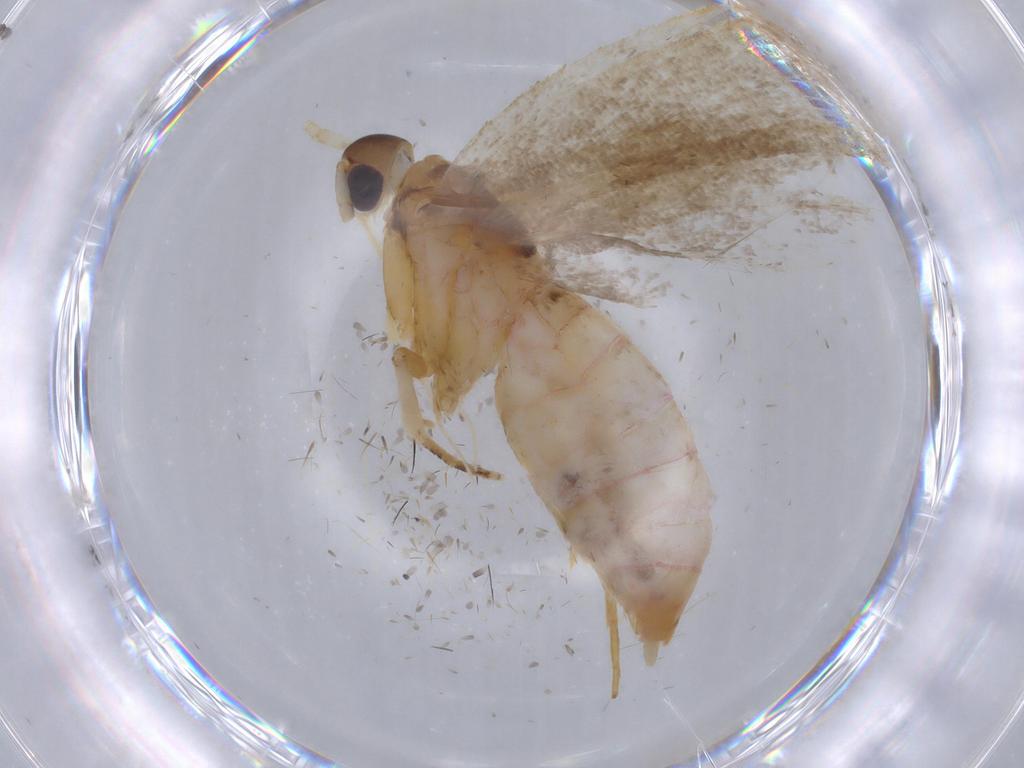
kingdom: Animalia
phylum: Arthropoda
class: Insecta
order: Lepidoptera
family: Lecithoceridae
